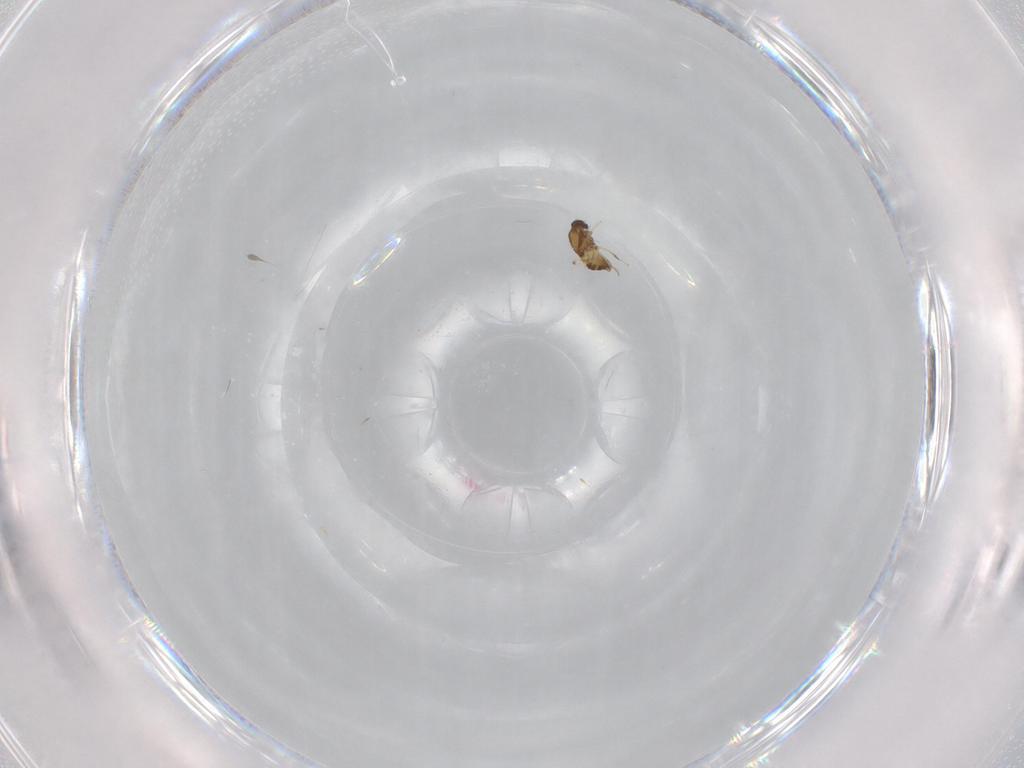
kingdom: Animalia
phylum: Arthropoda
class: Insecta
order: Diptera
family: Chironomidae
